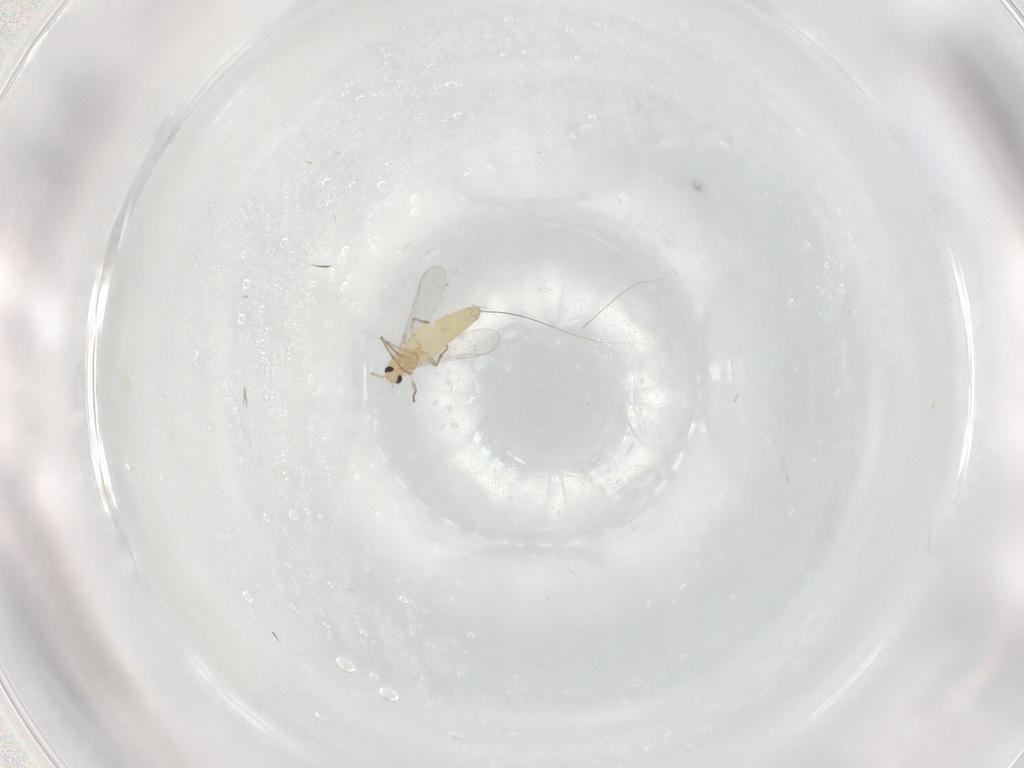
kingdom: Animalia
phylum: Arthropoda
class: Insecta
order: Diptera
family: Chironomidae
